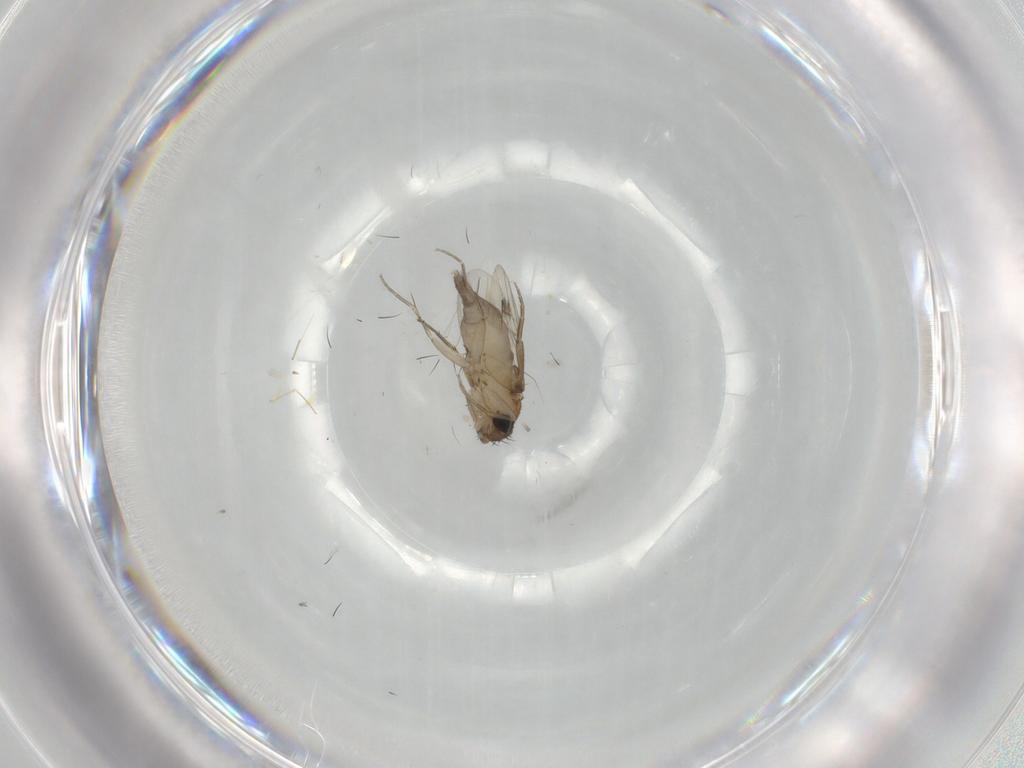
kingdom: Animalia
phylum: Arthropoda
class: Insecta
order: Diptera
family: Phoridae
